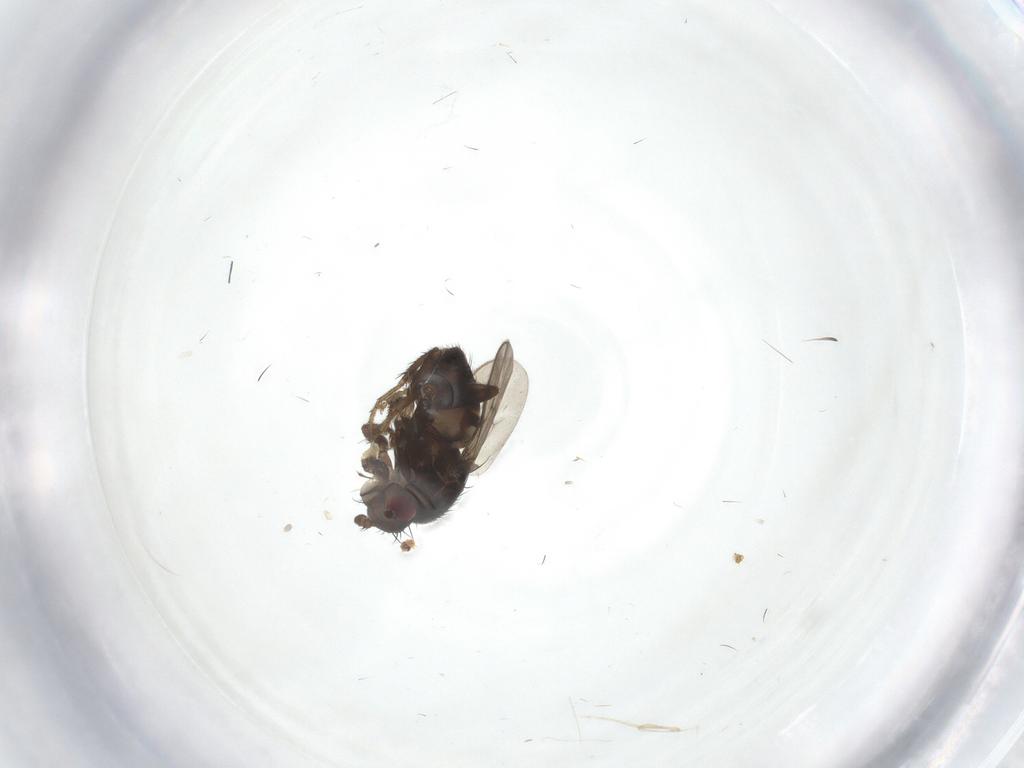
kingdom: Animalia
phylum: Arthropoda
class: Insecta
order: Diptera
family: Sphaeroceridae
